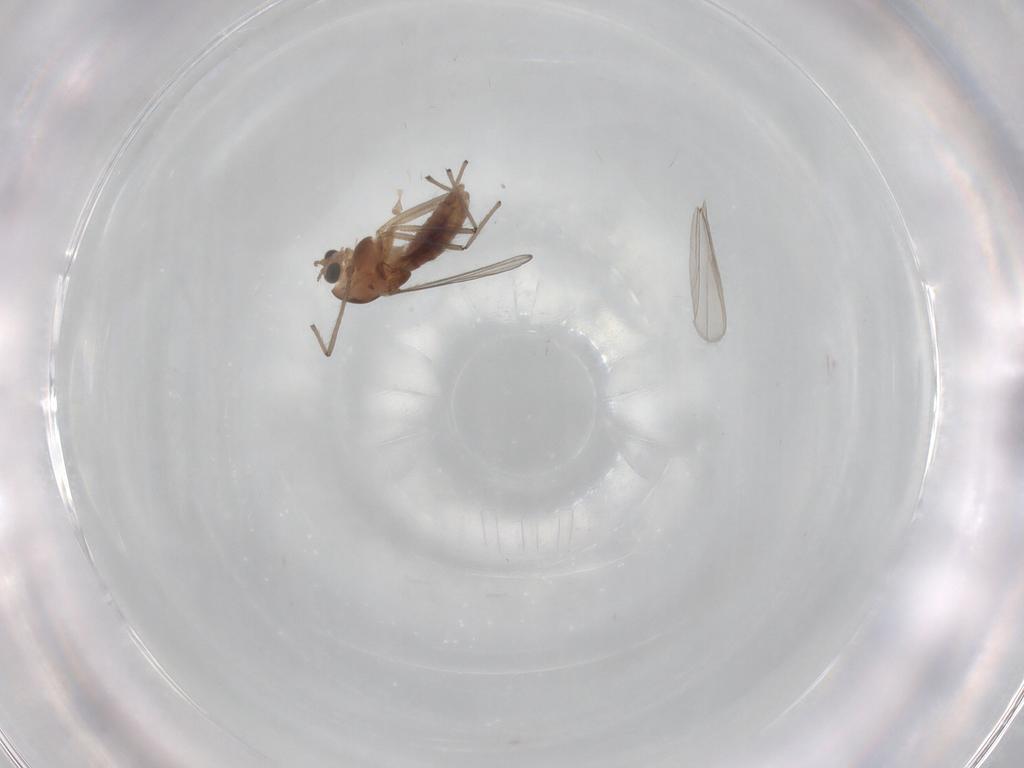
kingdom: Animalia
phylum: Arthropoda
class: Insecta
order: Diptera
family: Chironomidae
